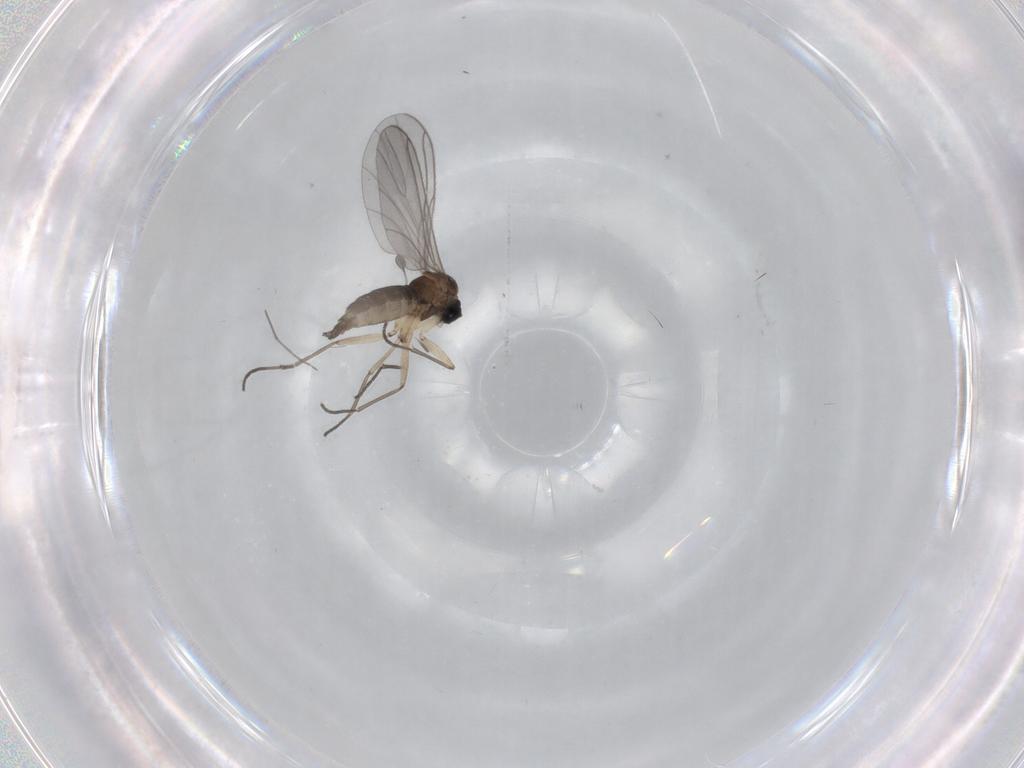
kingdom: Animalia
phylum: Arthropoda
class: Insecta
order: Diptera
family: Sciaridae
